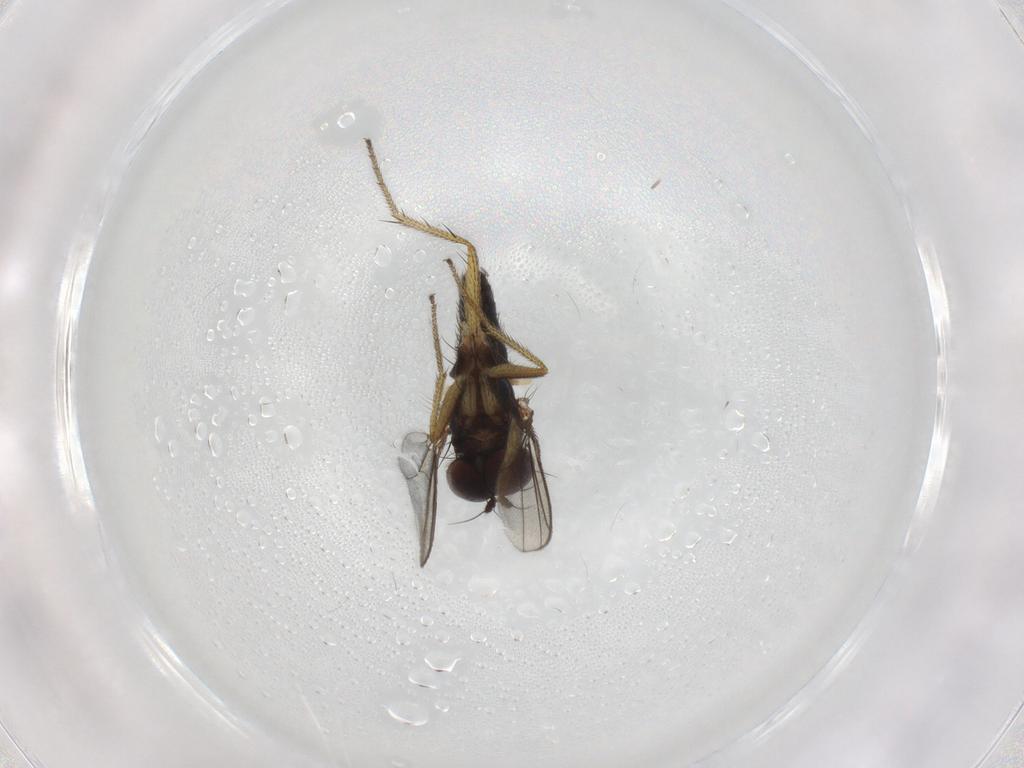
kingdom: Animalia
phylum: Arthropoda
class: Insecta
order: Diptera
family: Dolichopodidae
